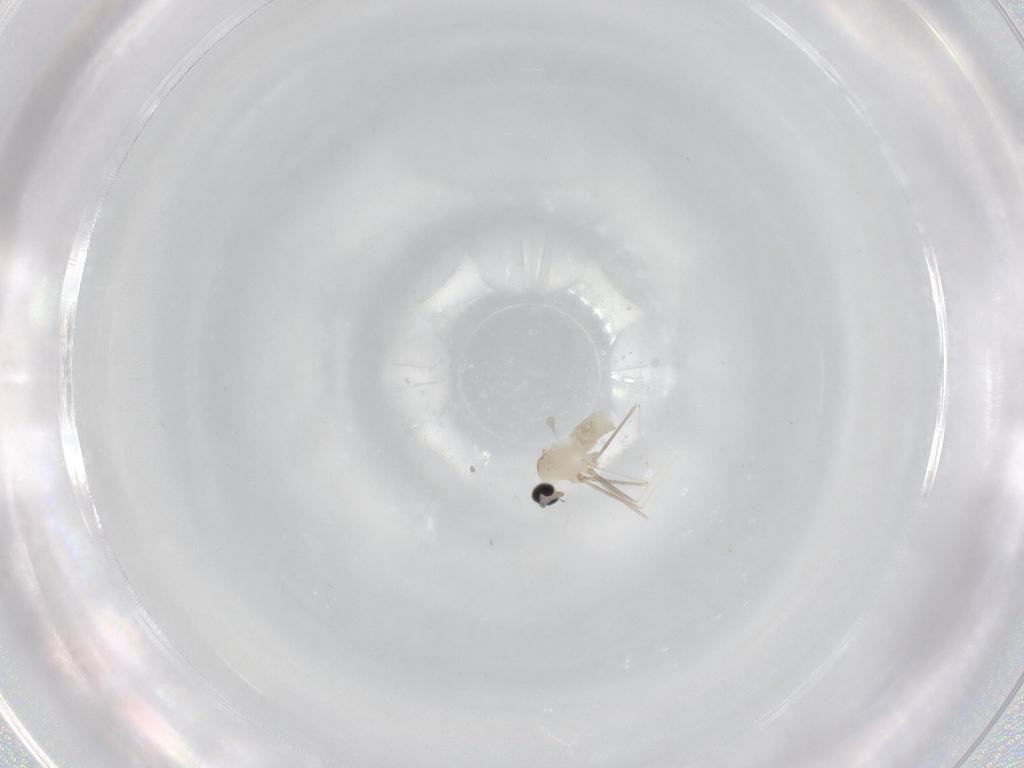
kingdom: Animalia
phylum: Arthropoda
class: Insecta
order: Diptera
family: Cecidomyiidae
